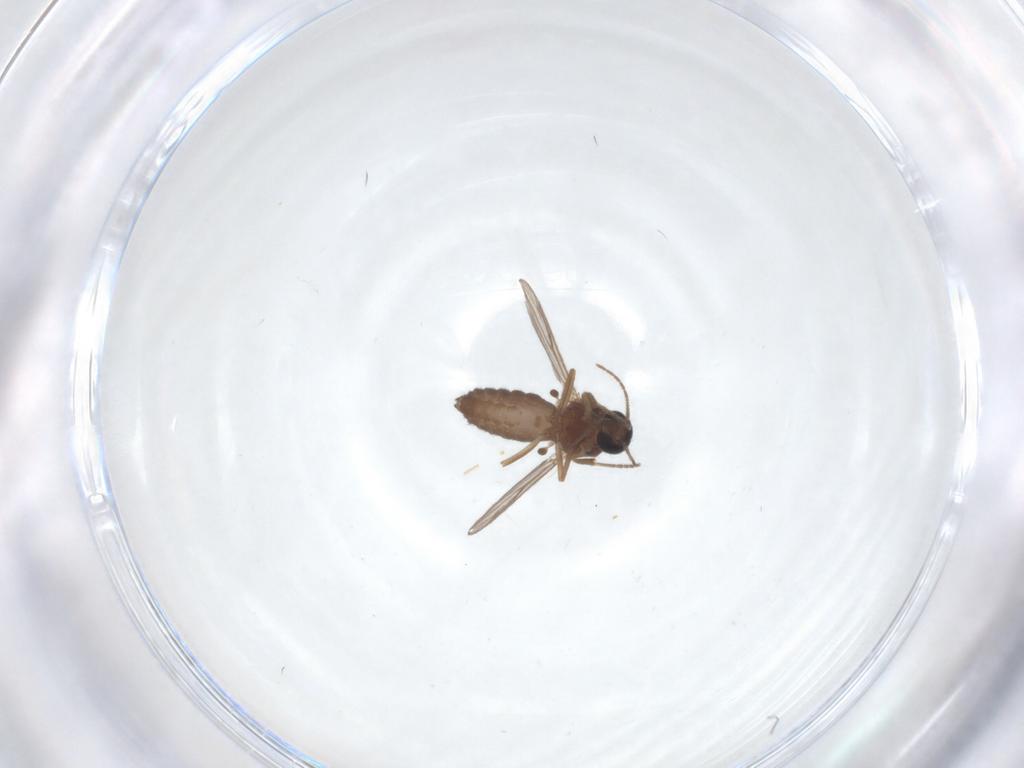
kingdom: Animalia
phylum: Arthropoda
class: Insecta
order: Diptera
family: Ceratopogonidae
